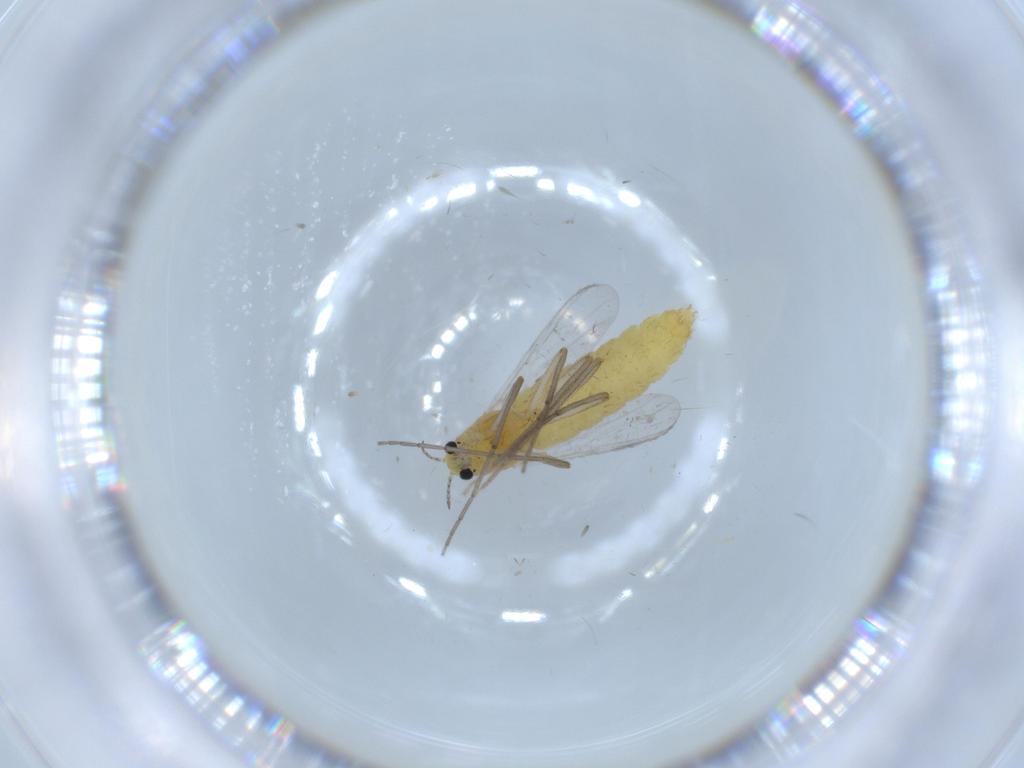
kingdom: Animalia
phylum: Arthropoda
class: Insecta
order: Diptera
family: Chironomidae
